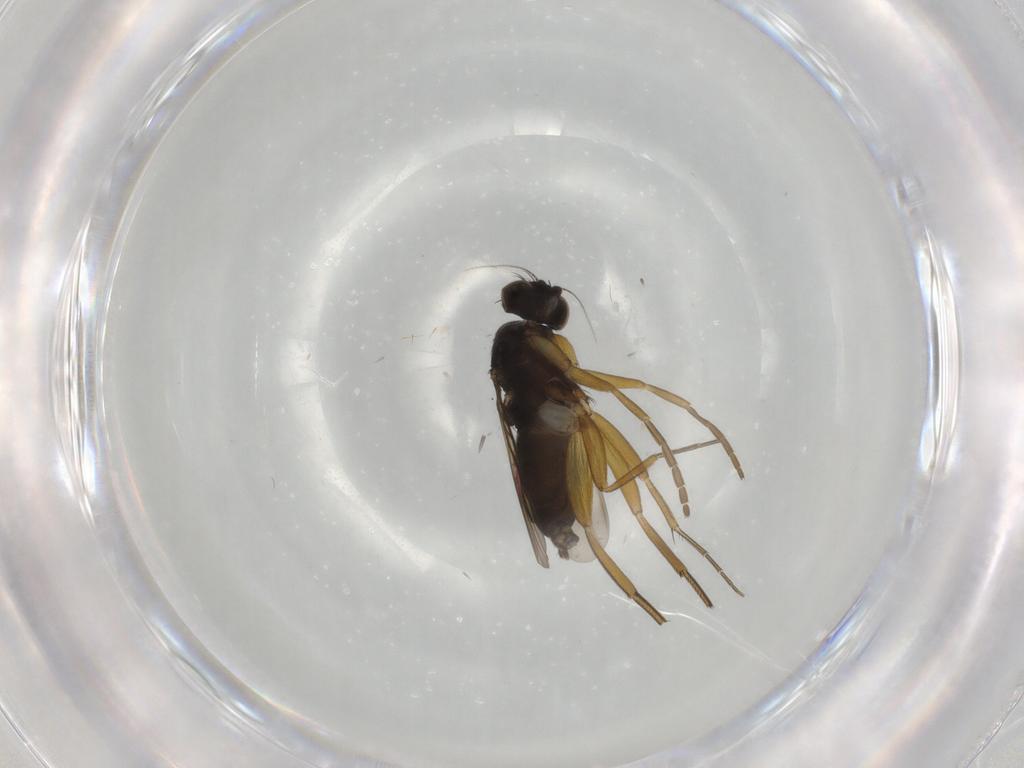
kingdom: Animalia
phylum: Arthropoda
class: Insecta
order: Diptera
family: Phoridae
